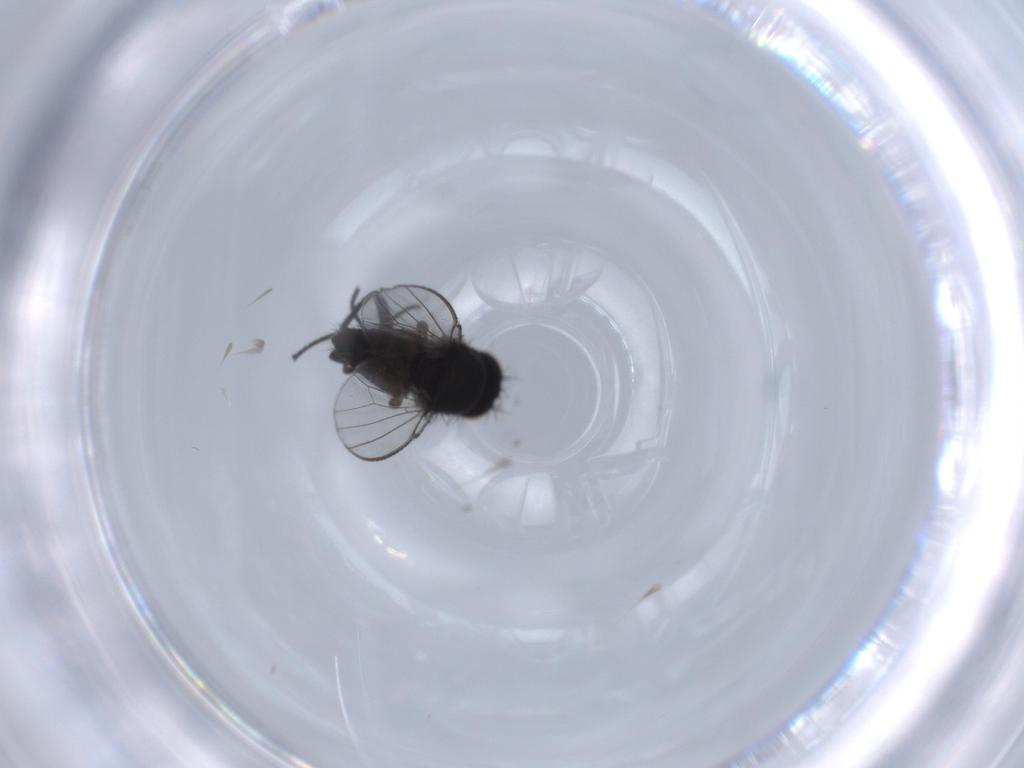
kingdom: Animalia
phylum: Arthropoda
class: Insecta
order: Diptera
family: Milichiidae
